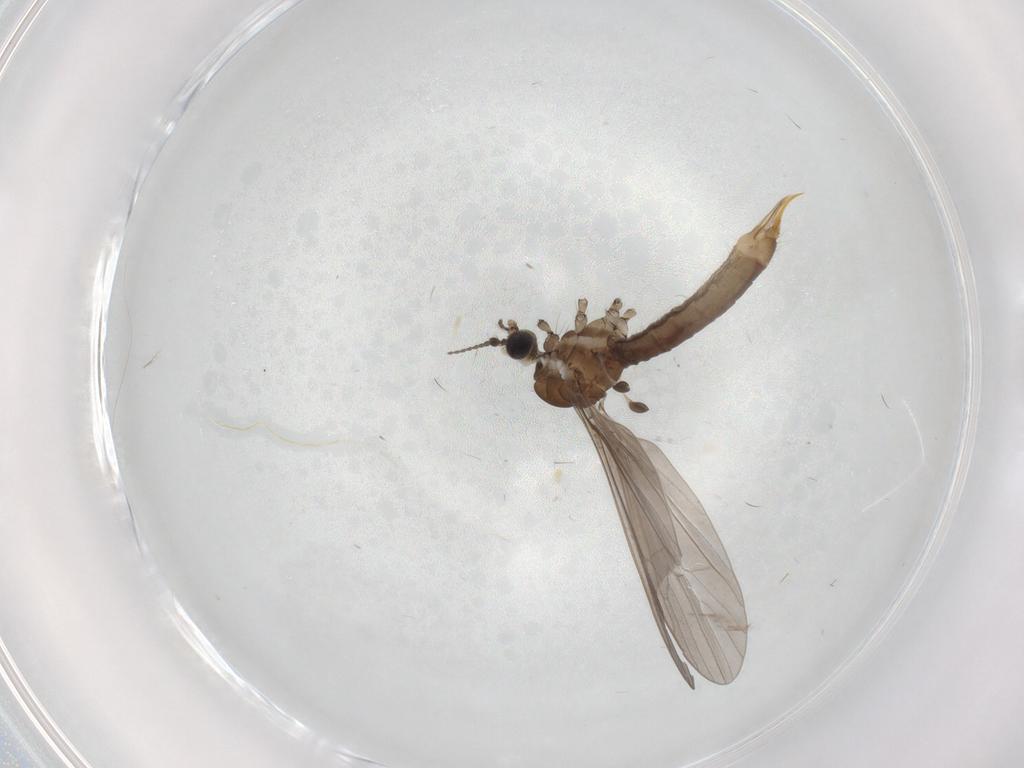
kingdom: Animalia
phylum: Arthropoda
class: Insecta
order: Diptera
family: Limoniidae
